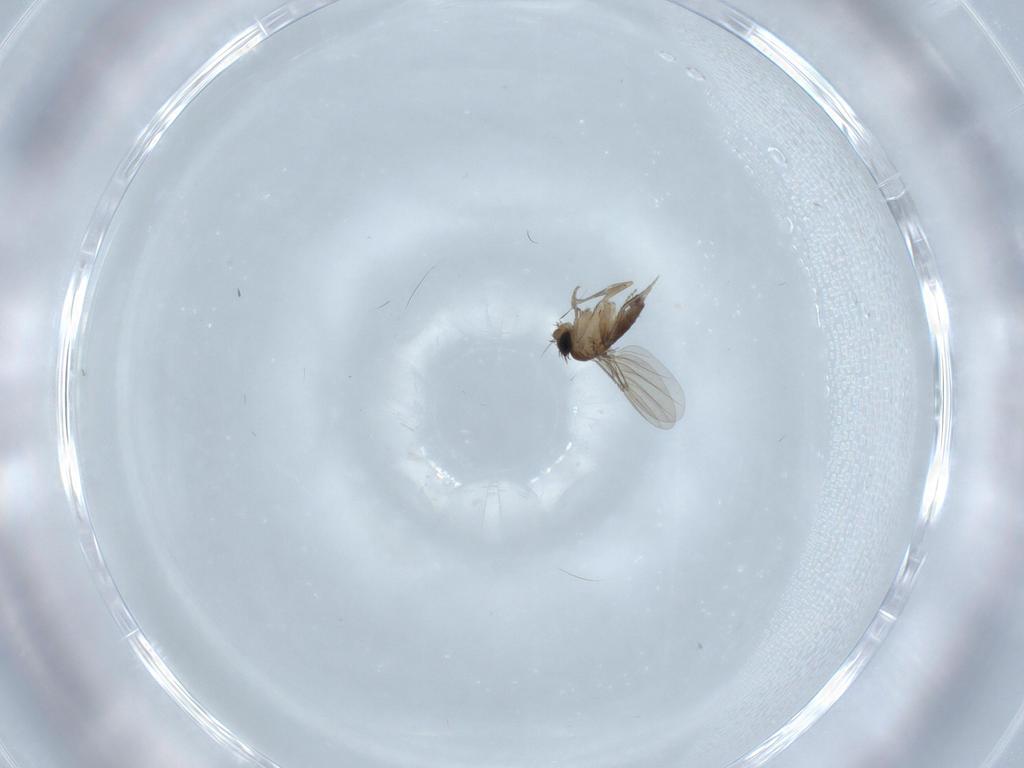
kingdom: Animalia
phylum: Arthropoda
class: Insecta
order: Diptera
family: Phoridae
